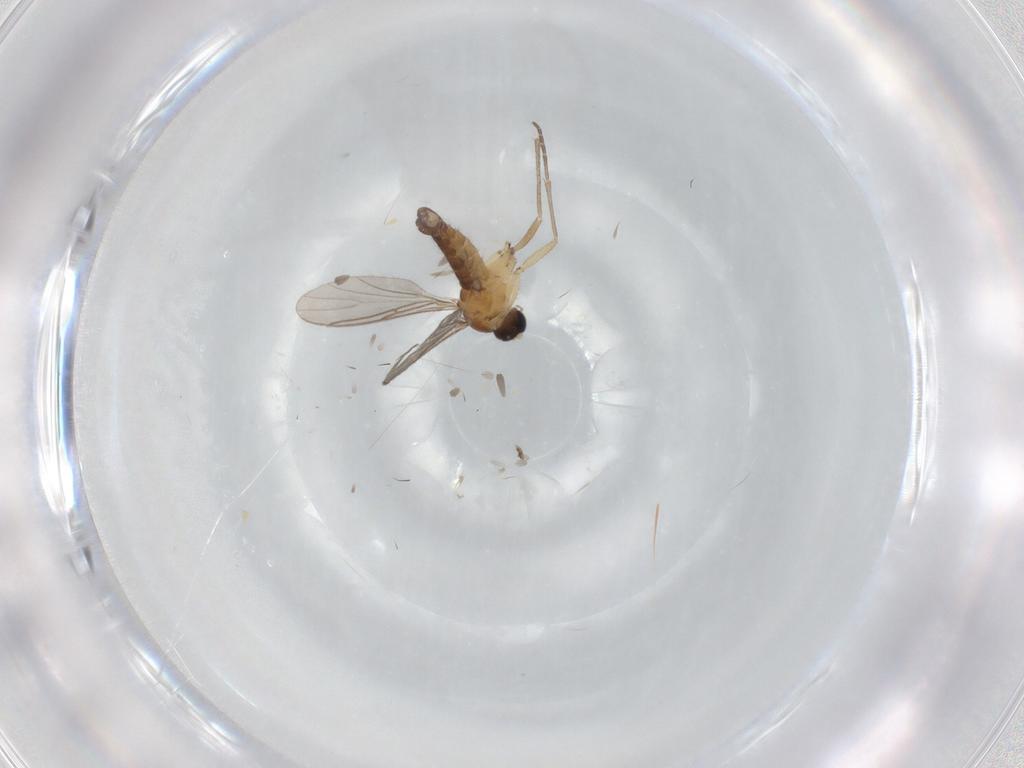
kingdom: Animalia
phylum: Arthropoda
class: Insecta
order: Diptera
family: Sciaridae
